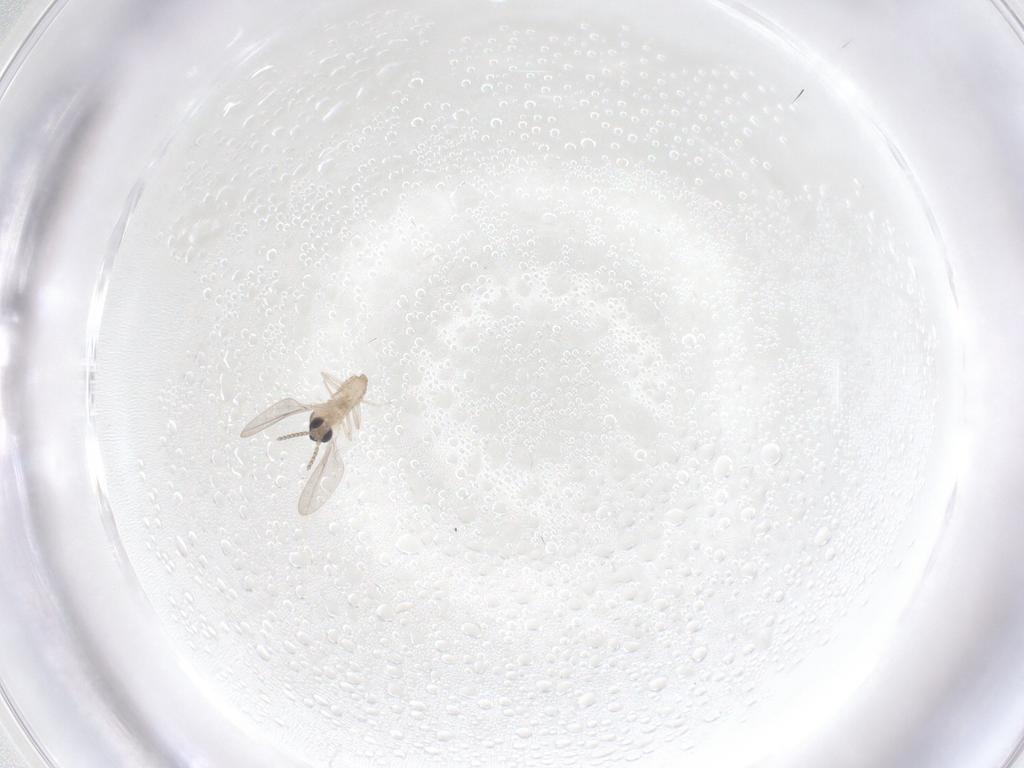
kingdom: Animalia
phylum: Arthropoda
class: Insecta
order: Diptera
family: Cecidomyiidae
